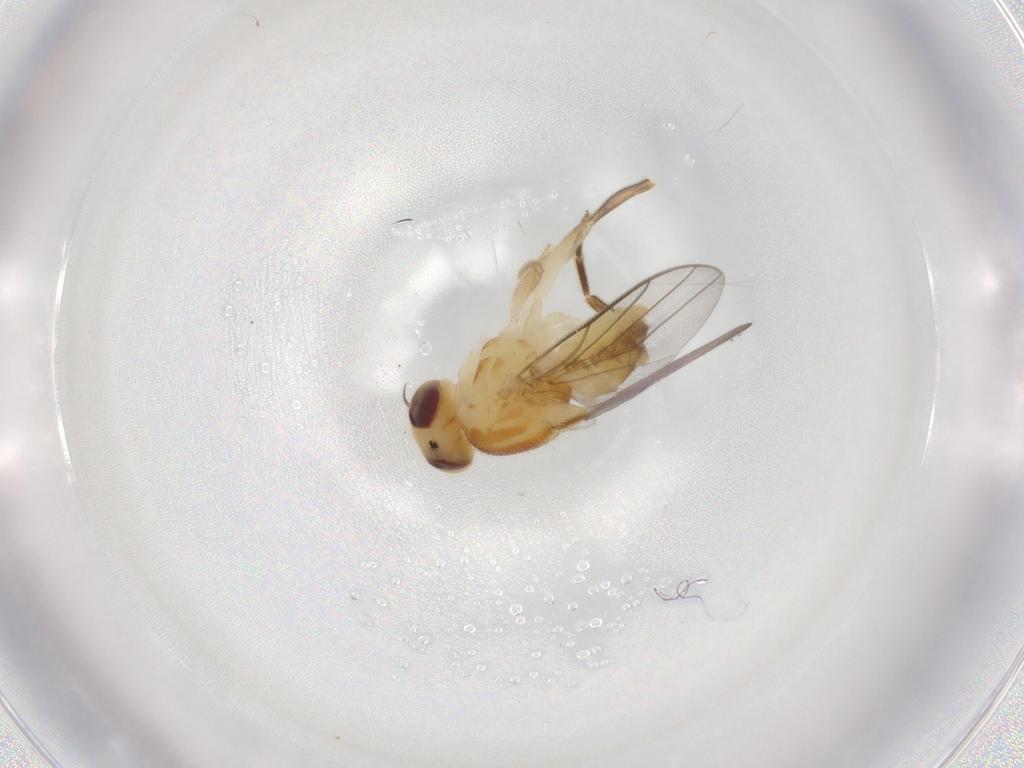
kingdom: Animalia
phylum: Arthropoda
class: Insecta
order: Diptera
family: Chloropidae
